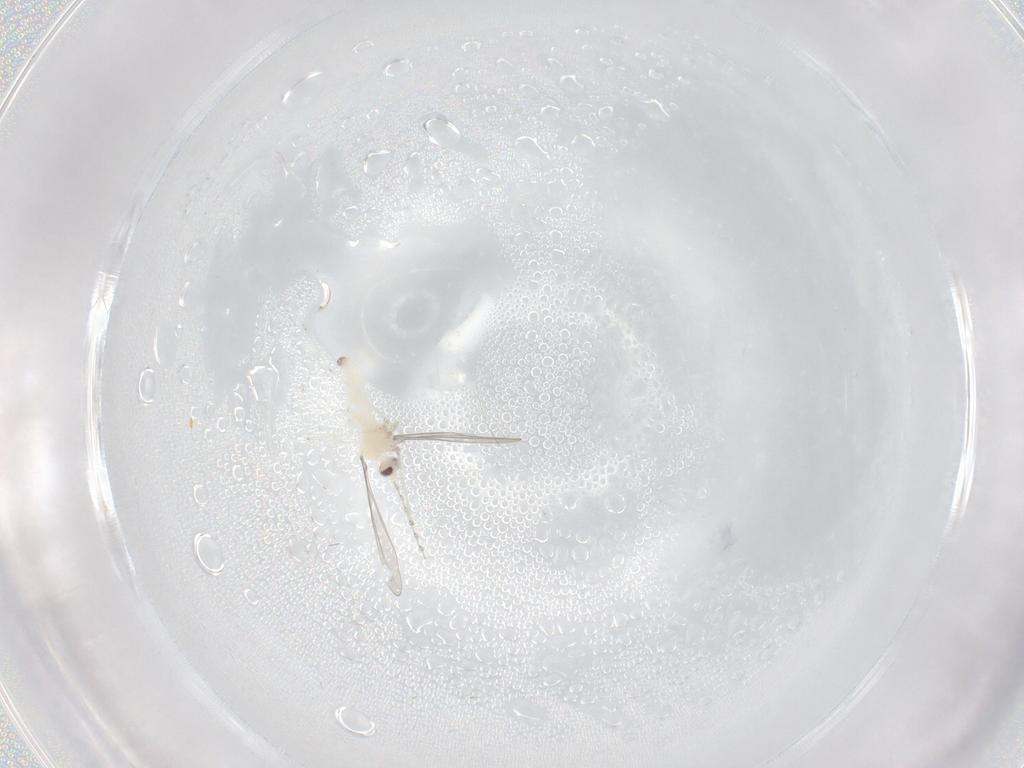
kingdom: Animalia
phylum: Arthropoda
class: Insecta
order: Diptera
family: Cecidomyiidae
